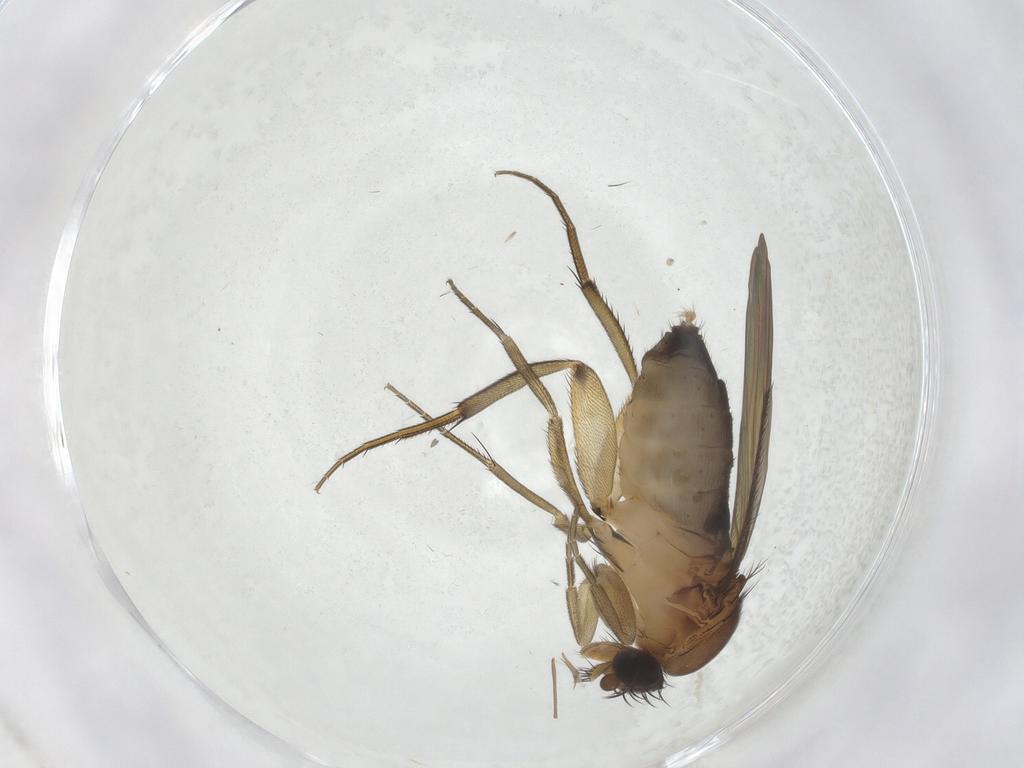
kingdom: Animalia
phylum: Arthropoda
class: Insecta
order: Diptera
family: Phoridae
